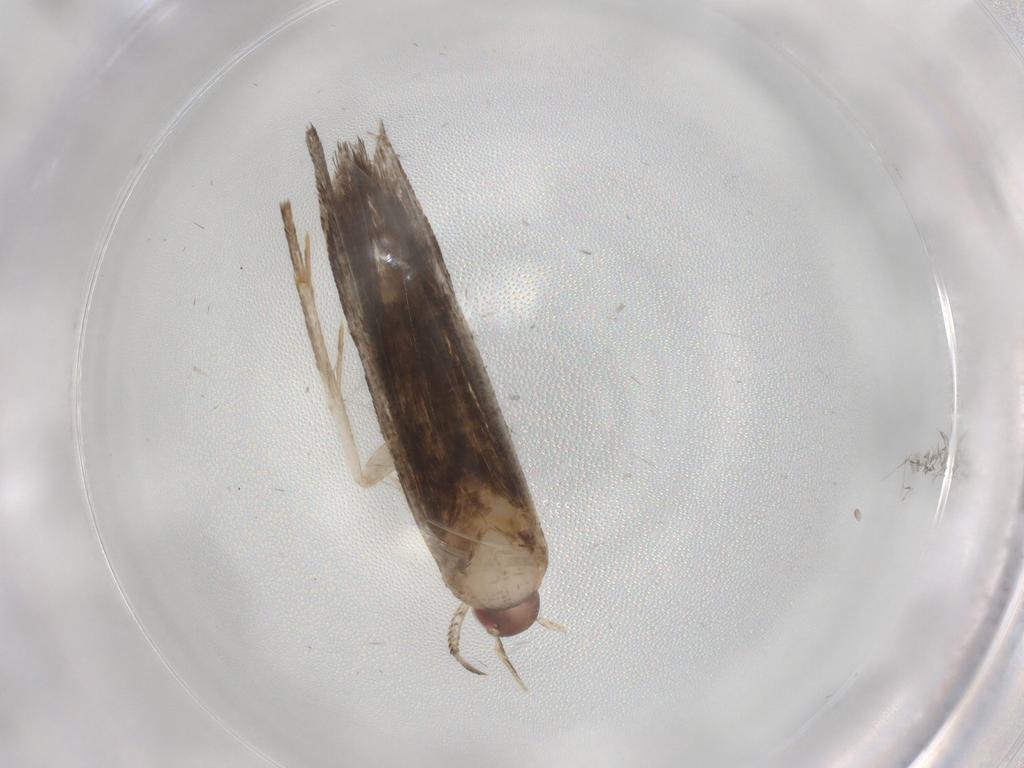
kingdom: Animalia
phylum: Arthropoda
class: Insecta
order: Lepidoptera
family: Gelechiidae
